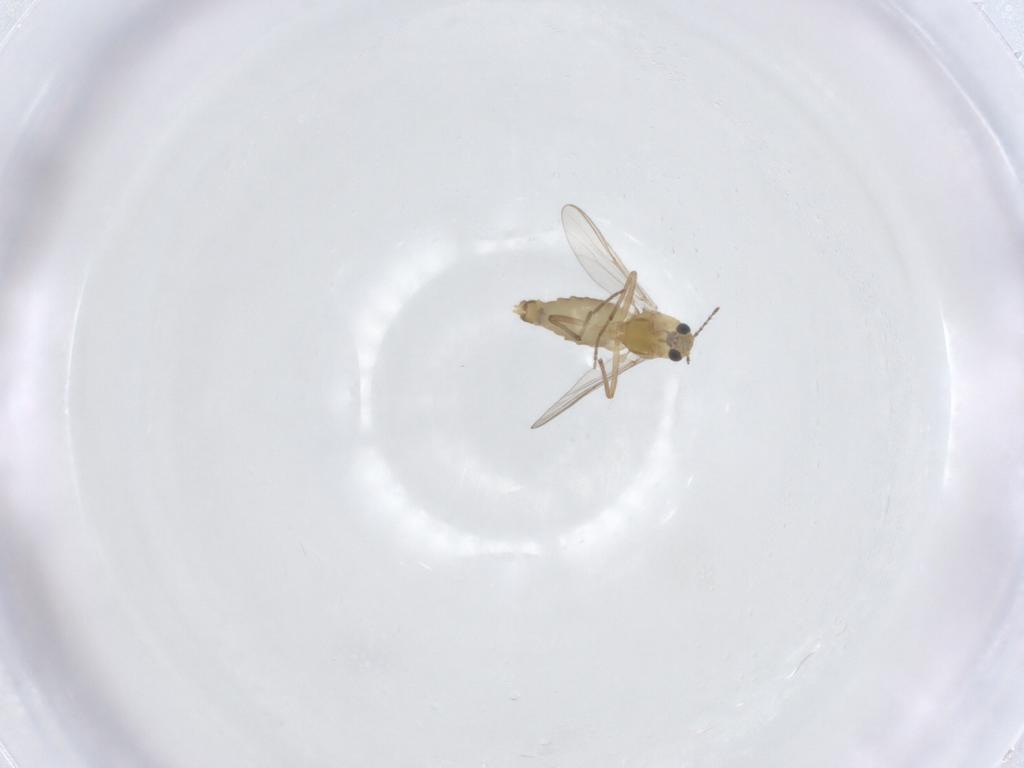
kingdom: Animalia
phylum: Arthropoda
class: Insecta
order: Diptera
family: Chironomidae
